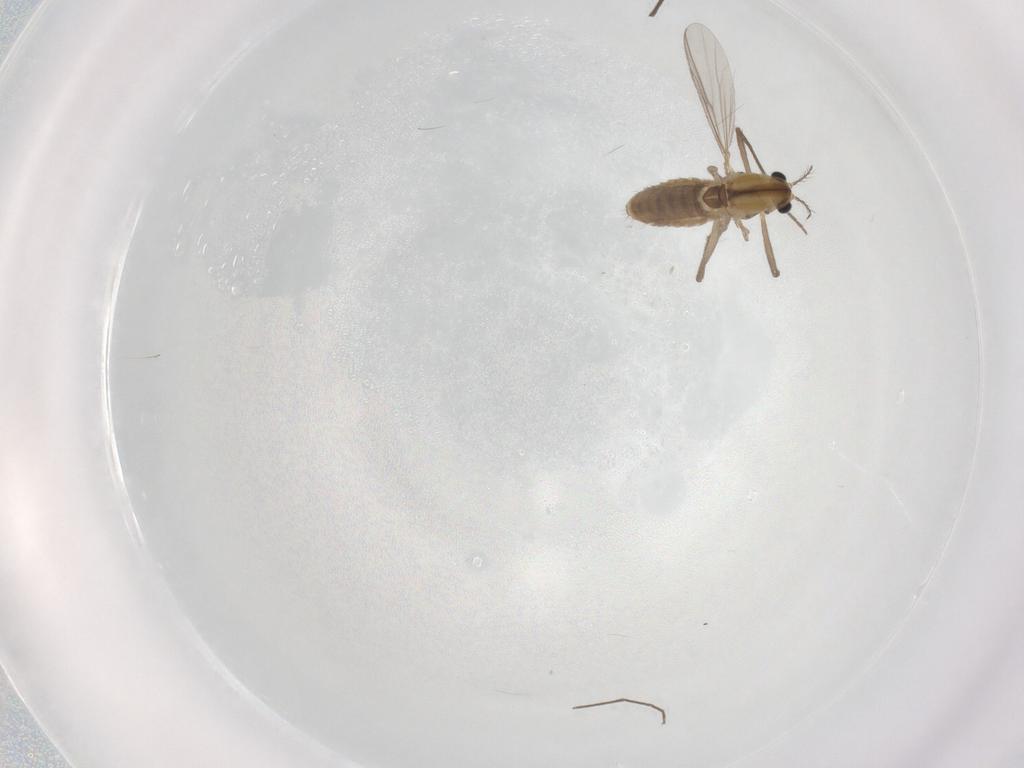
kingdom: Animalia
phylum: Arthropoda
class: Insecta
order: Diptera
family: Chironomidae
